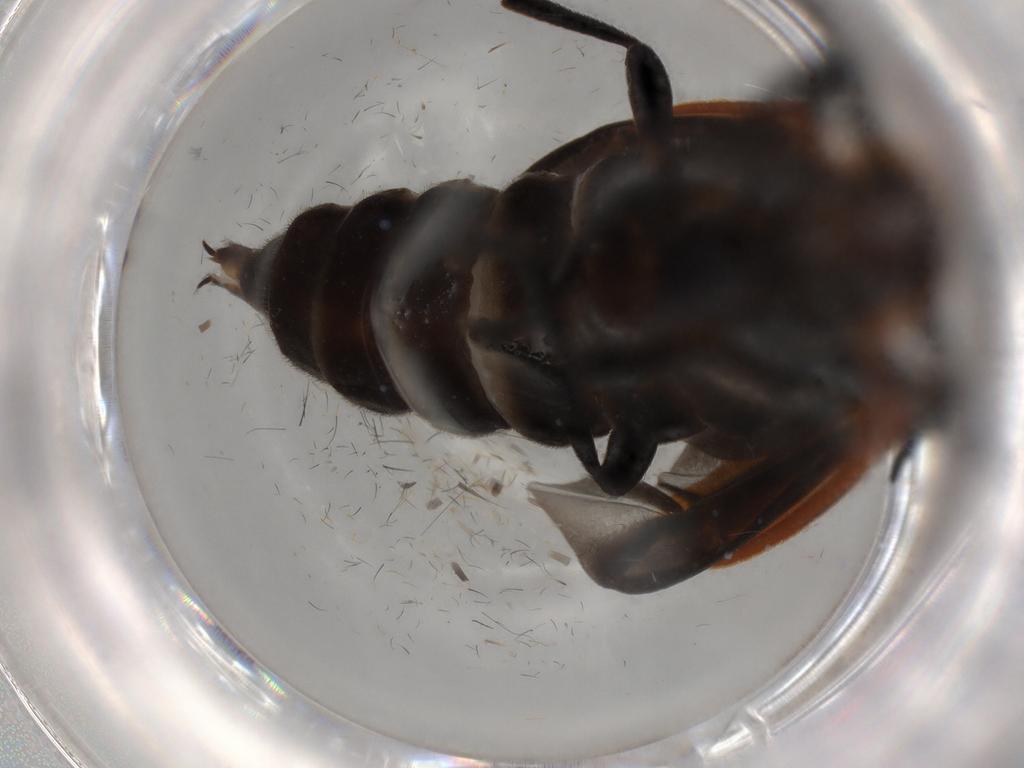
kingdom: Animalia
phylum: Arthropoda
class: Insecta
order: Coleoptera
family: Lycidae
